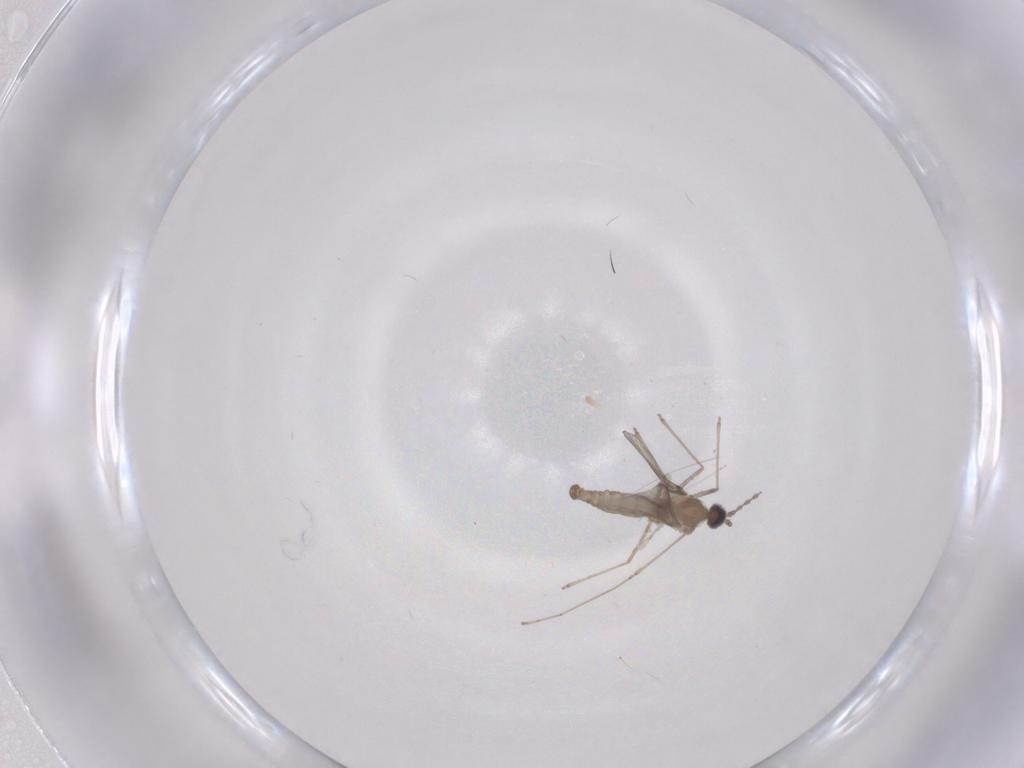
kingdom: Animalia
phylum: Arthropoda
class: Insecta
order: Diptera
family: Cecidomyiidae
